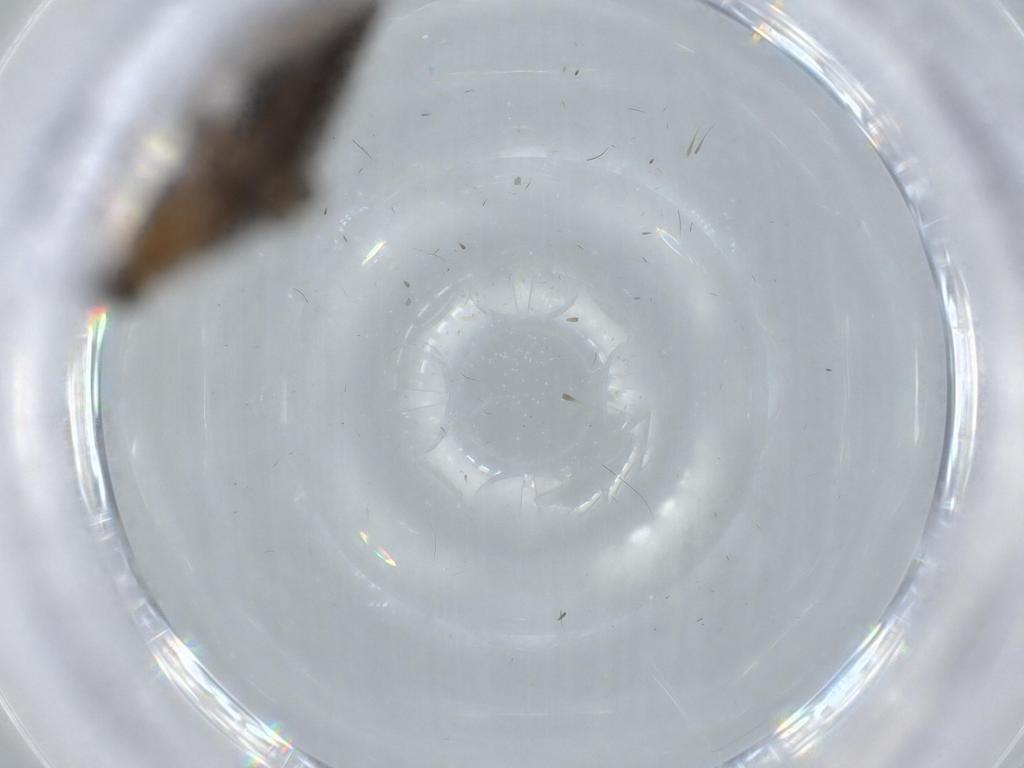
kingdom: Animalia
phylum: Arthropoda
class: Insecta
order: Diptera
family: Sciaridae
